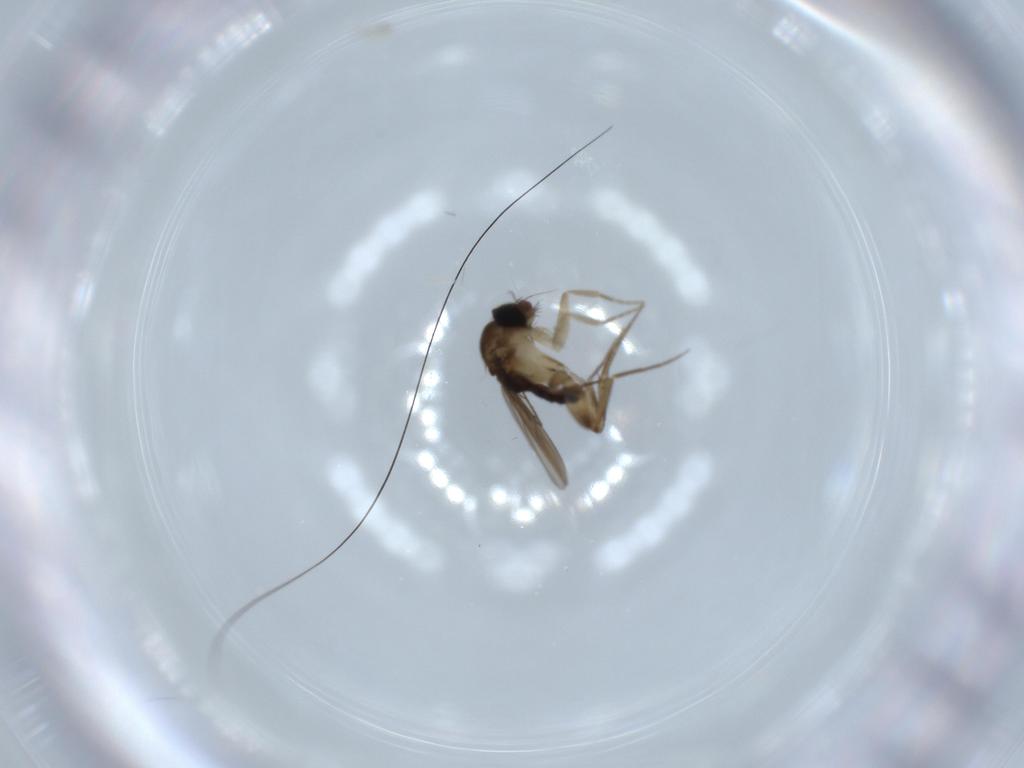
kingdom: Animalia
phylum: Arthropoda
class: Insecta
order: Diptera
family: Phoridae
